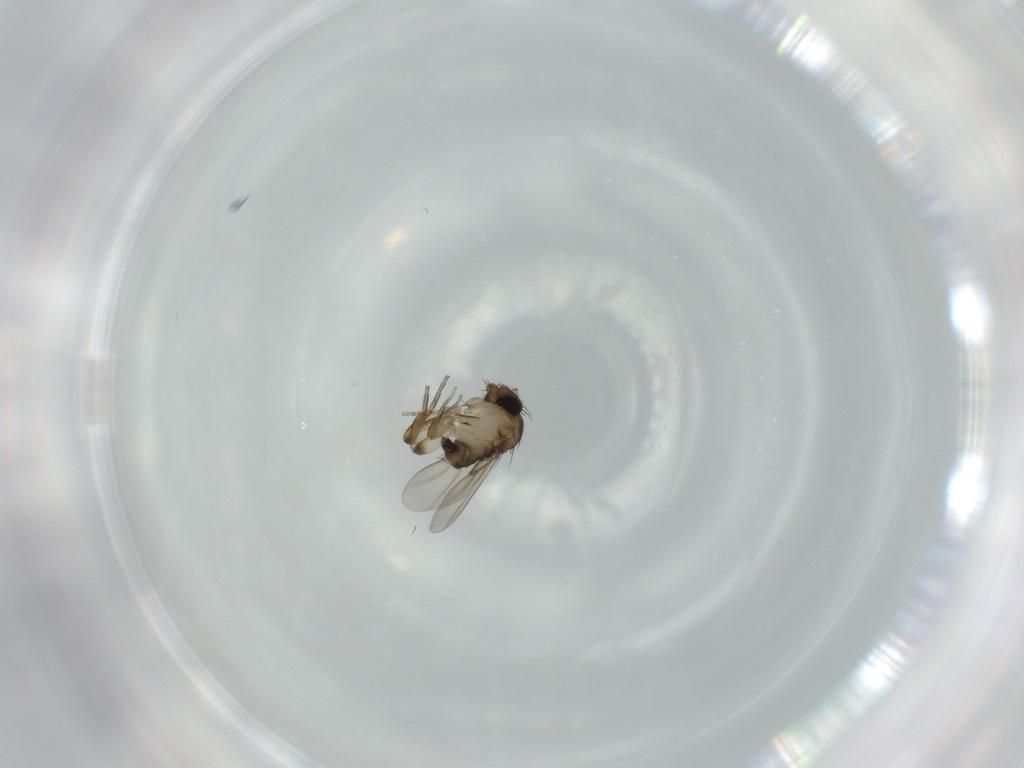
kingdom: Animalia
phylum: Arthropoda
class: Insecta
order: Diptera
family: Phoridae
